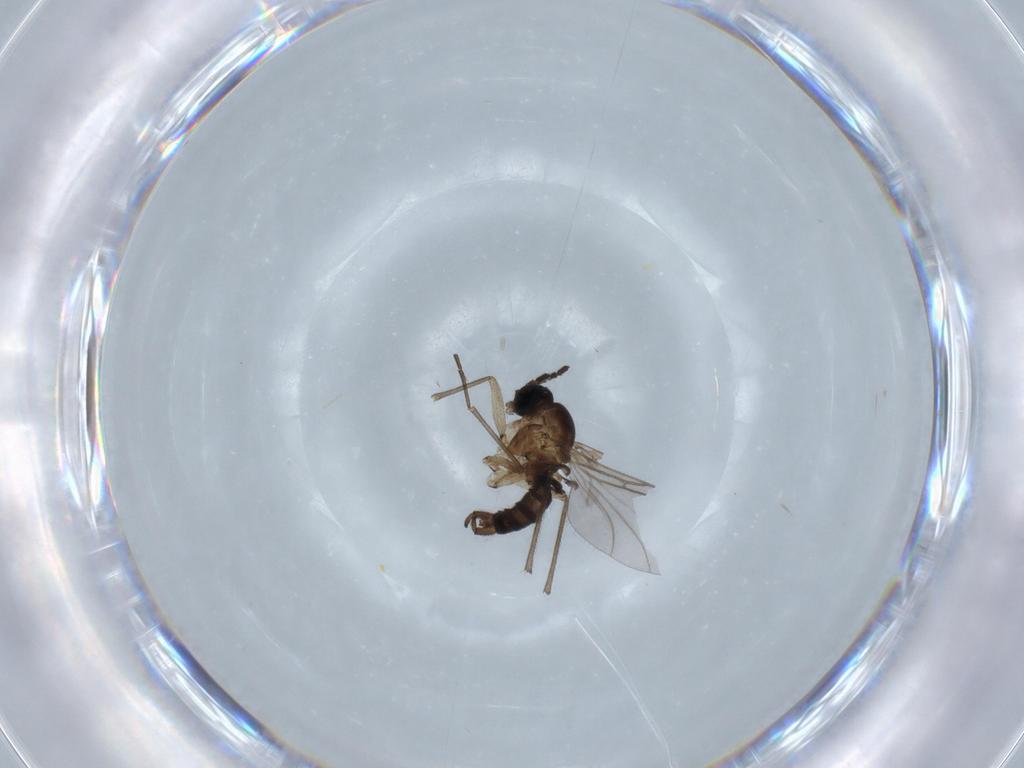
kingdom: Animalia
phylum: Arthropoda
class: Insecta
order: Diptera
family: Sciaridae
